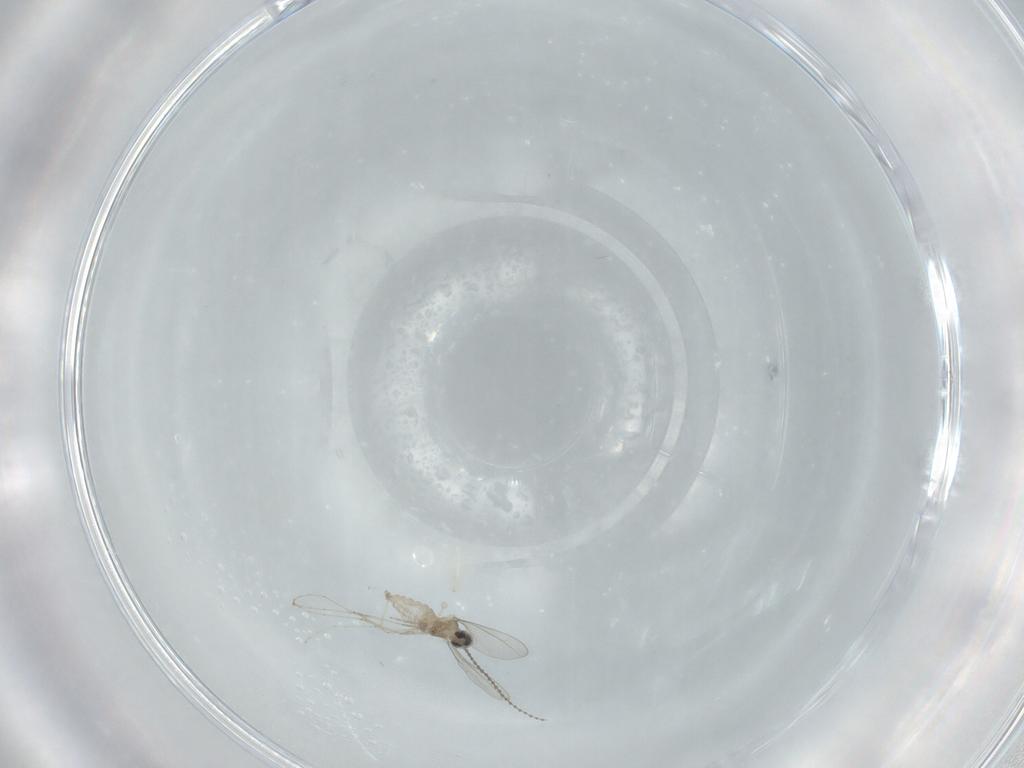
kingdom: Animalia
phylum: Arthropoda
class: Insecta
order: Diptera
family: Cecidomyiidae
